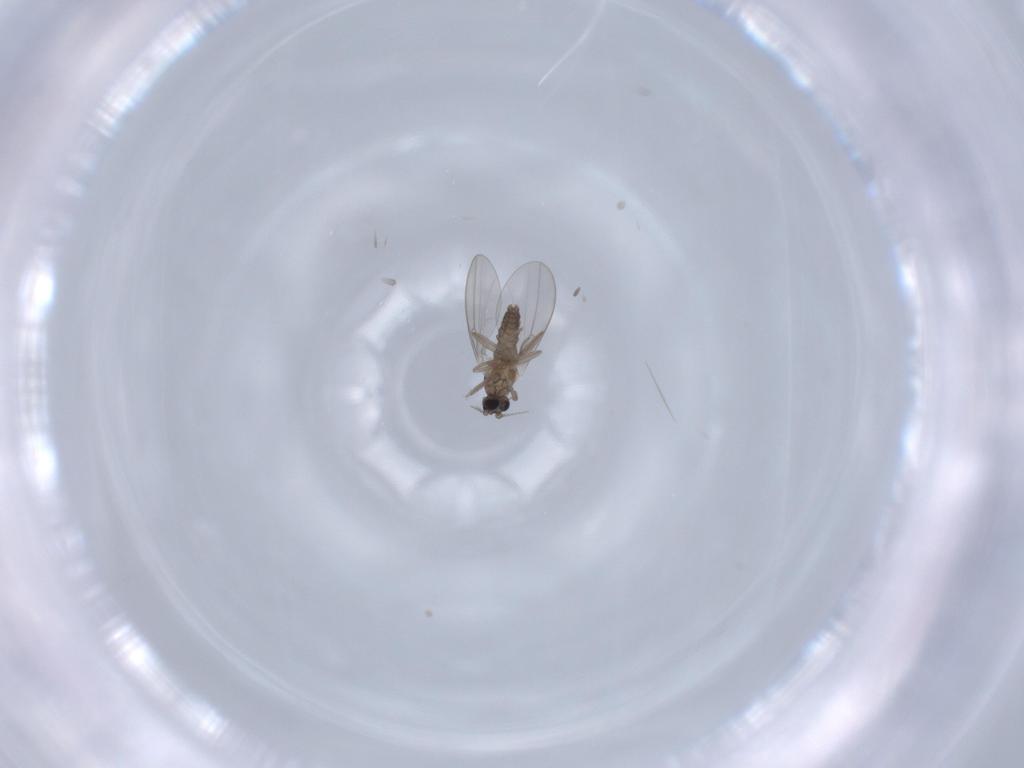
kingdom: Animalia
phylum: Arthropoda
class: Insecta
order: Diptera
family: Phoridae
